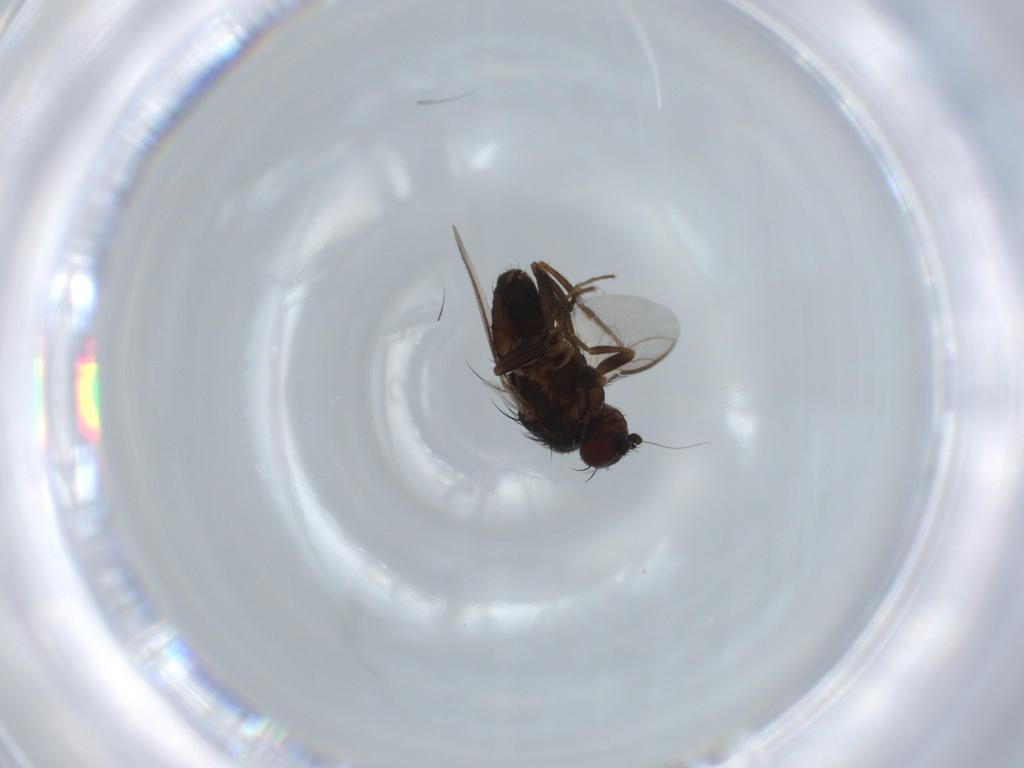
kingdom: Animalia
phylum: Arthropoda
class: Insecta
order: Diptera
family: Sphaeroceridae
